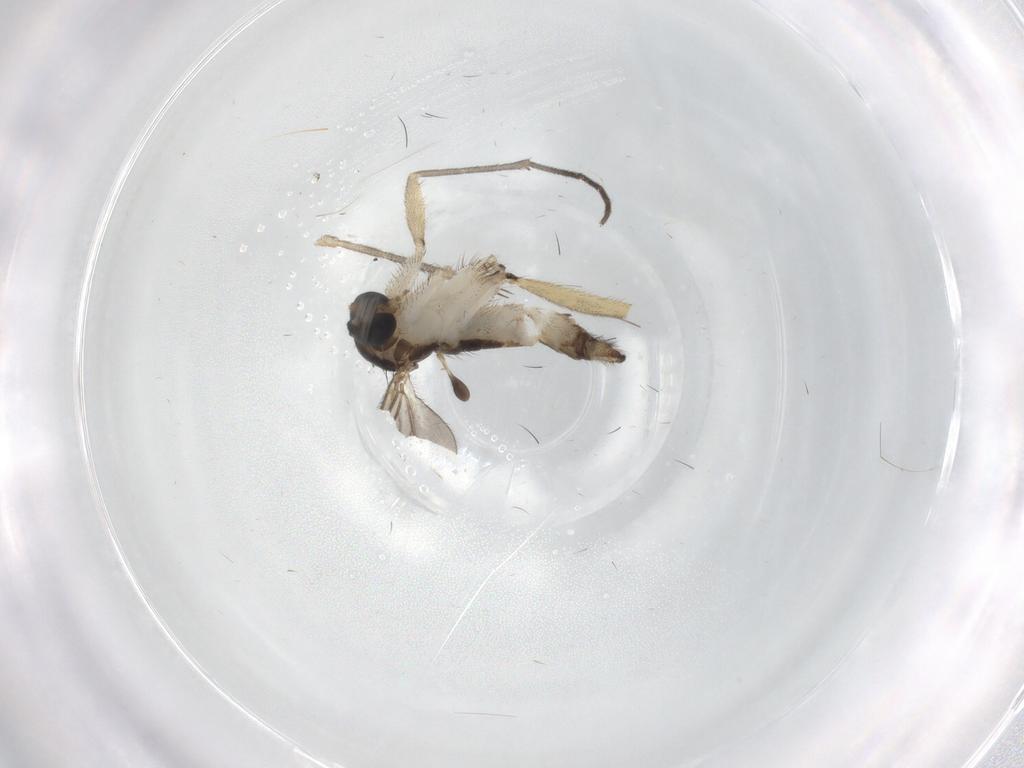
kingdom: Animalia
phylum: Arthropoda
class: Insecta
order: Diptera
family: Sciaridae
